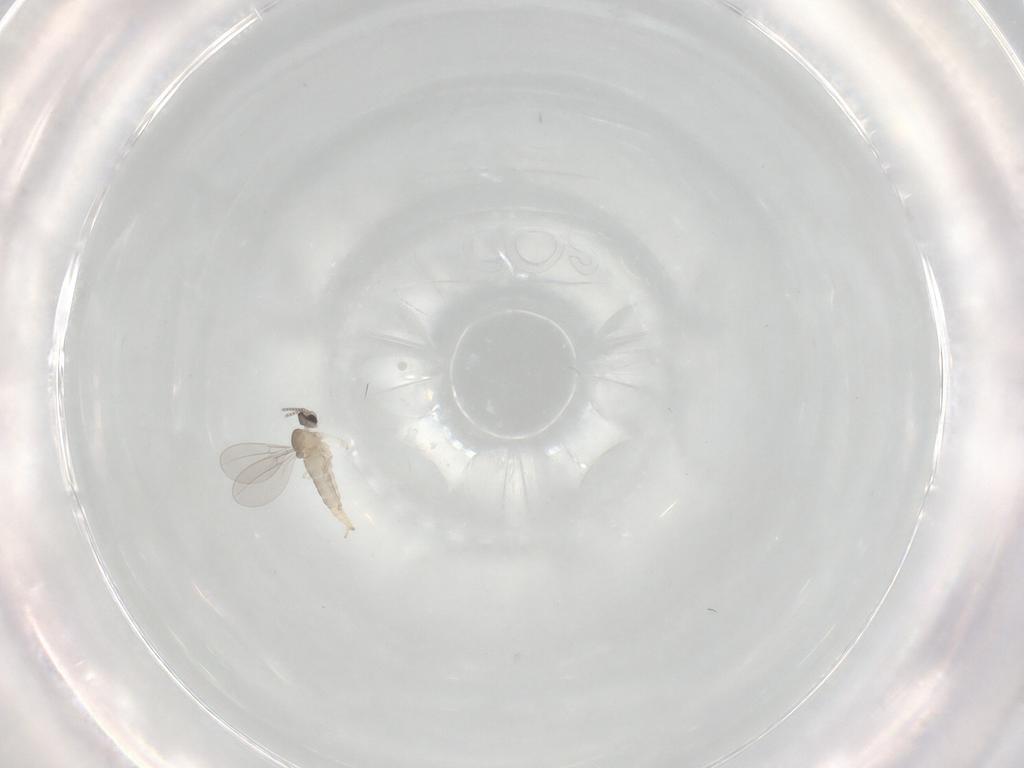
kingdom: Animalia
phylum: Arthropoda
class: Insecta
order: Diptera
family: Cecidomyiidae
